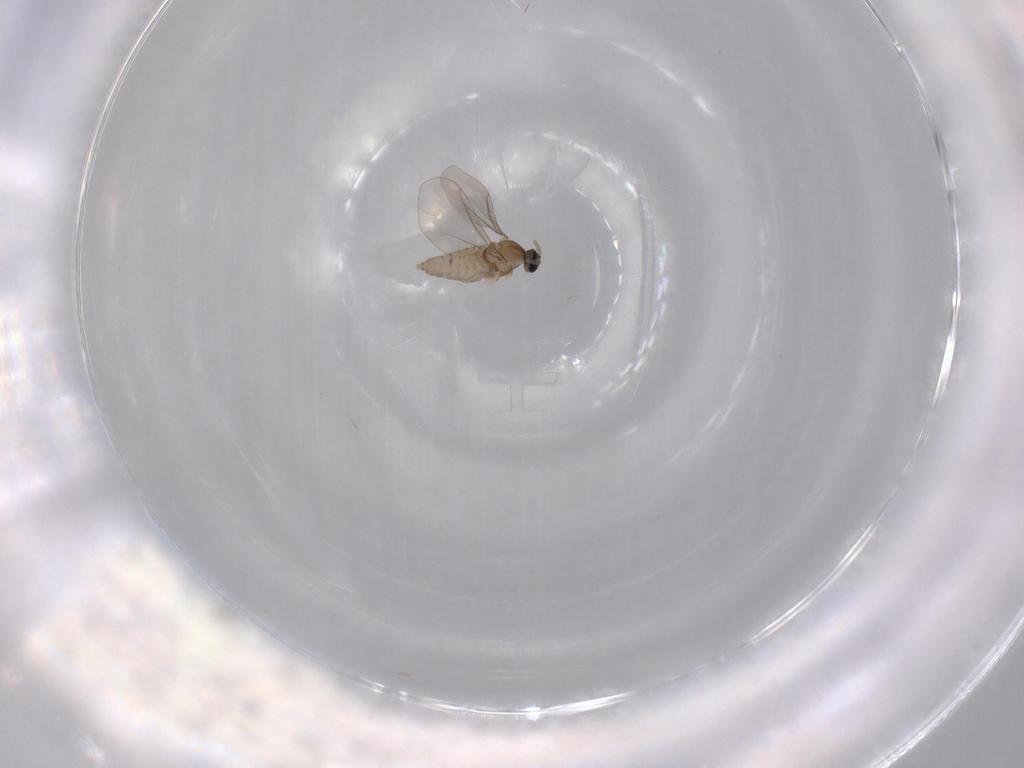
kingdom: Animalia
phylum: Arthropoda
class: Insecta
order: Diptera
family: Cecidomyiidae
